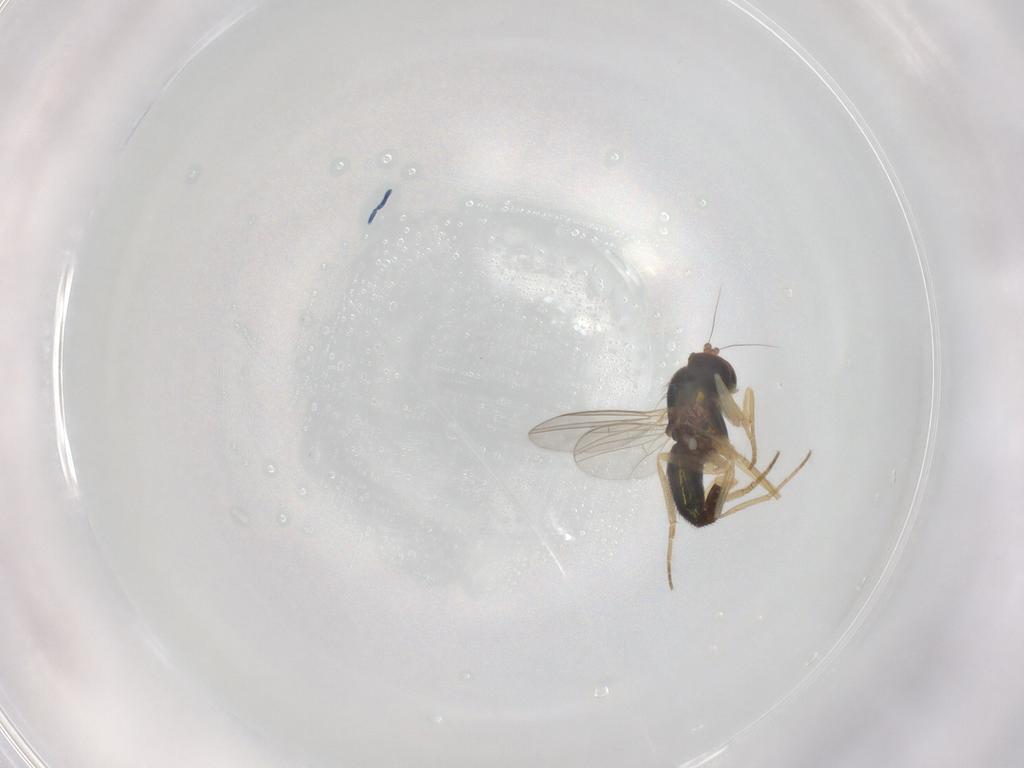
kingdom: Animalia
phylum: Arthropoda
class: Insecta
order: Diptera
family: Dolichopodidae
